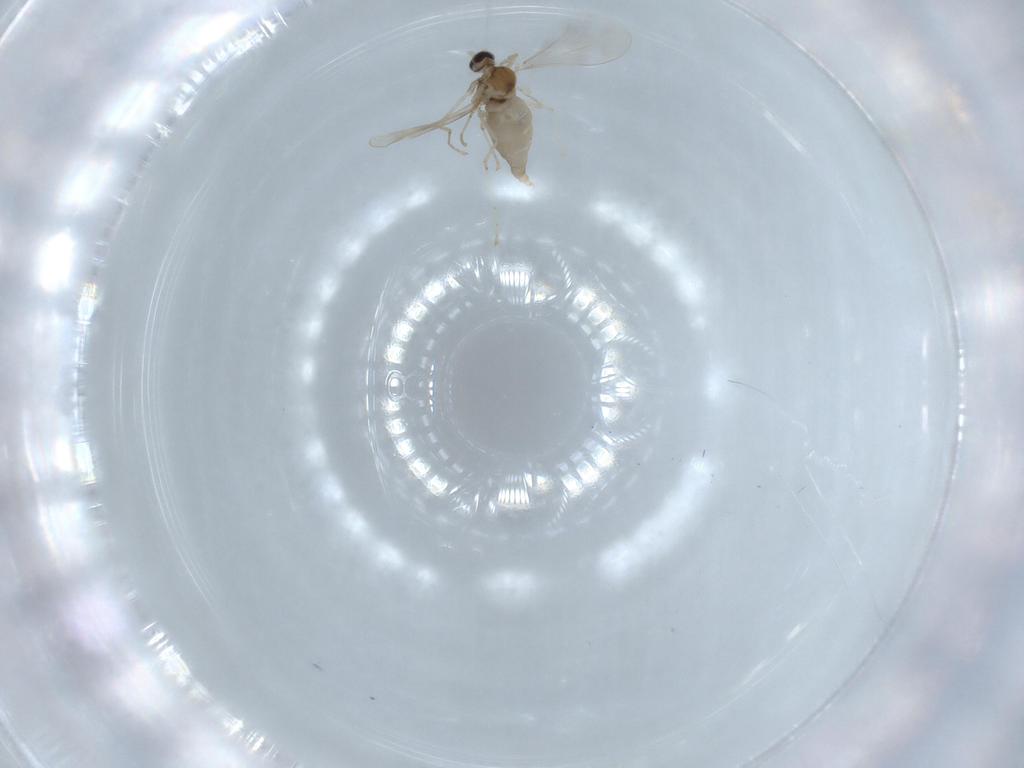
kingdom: Animalia
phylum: Arthropoda
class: Insecta
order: Diptera
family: Cecidomyiidae
